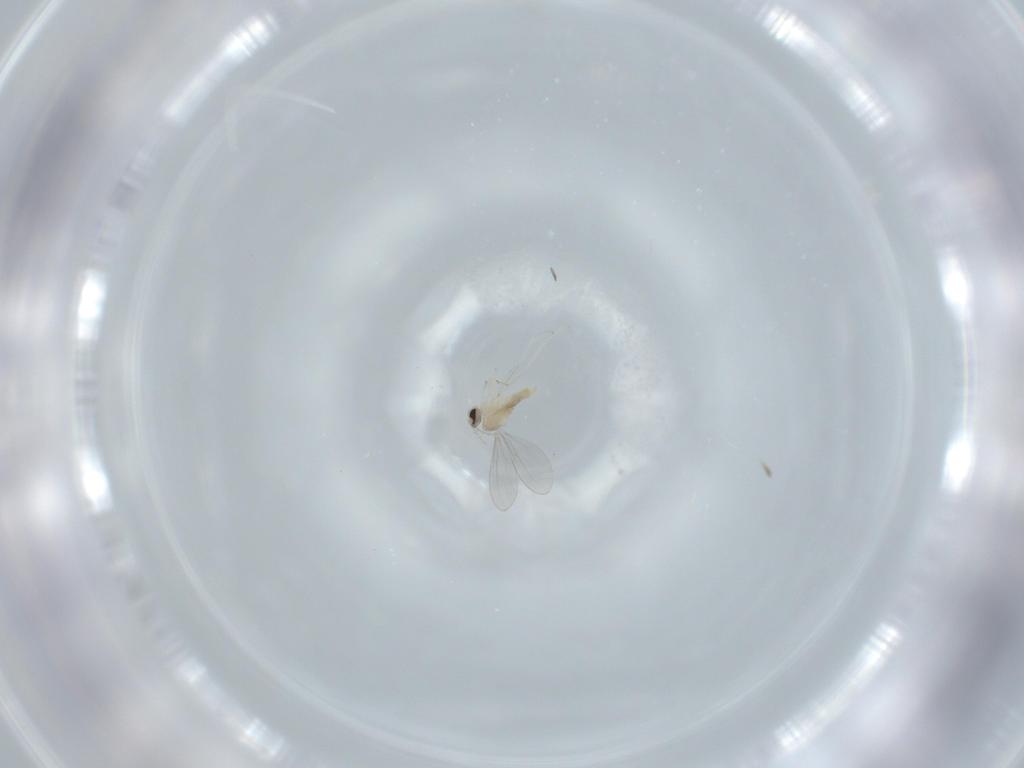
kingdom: Animalia
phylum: Arthropoda
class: Insecta
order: Diptera
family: Cecidomyiidae
